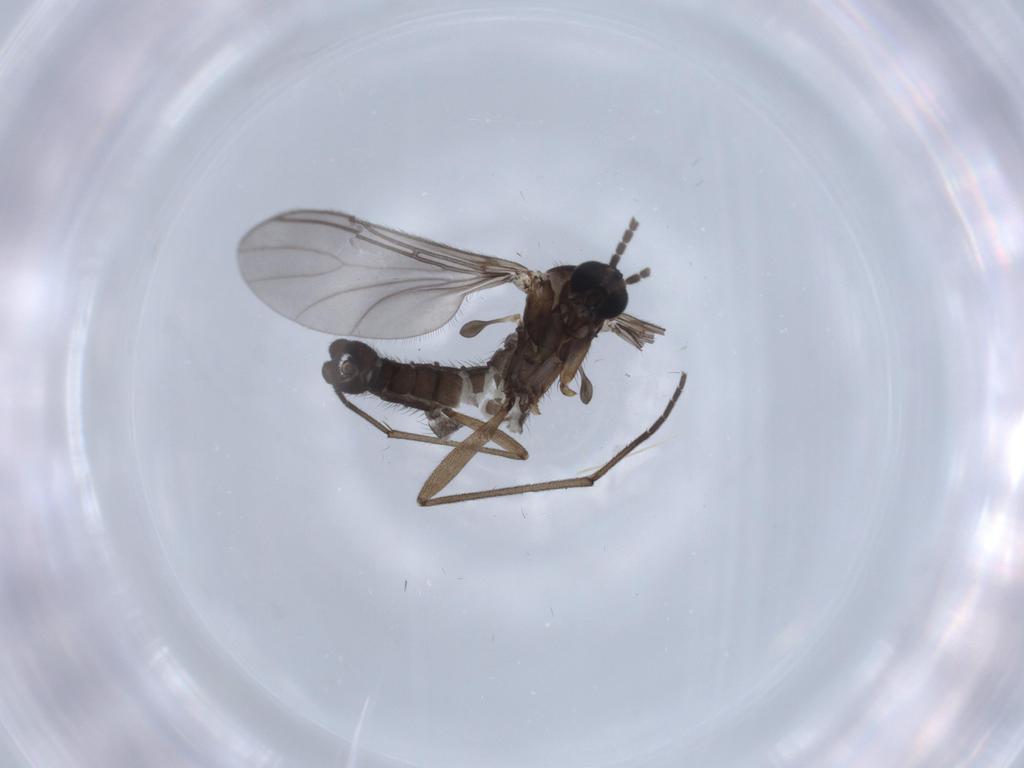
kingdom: Animalia
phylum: Arthropoda
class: Insecta
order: Diptera
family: Sciaridae
